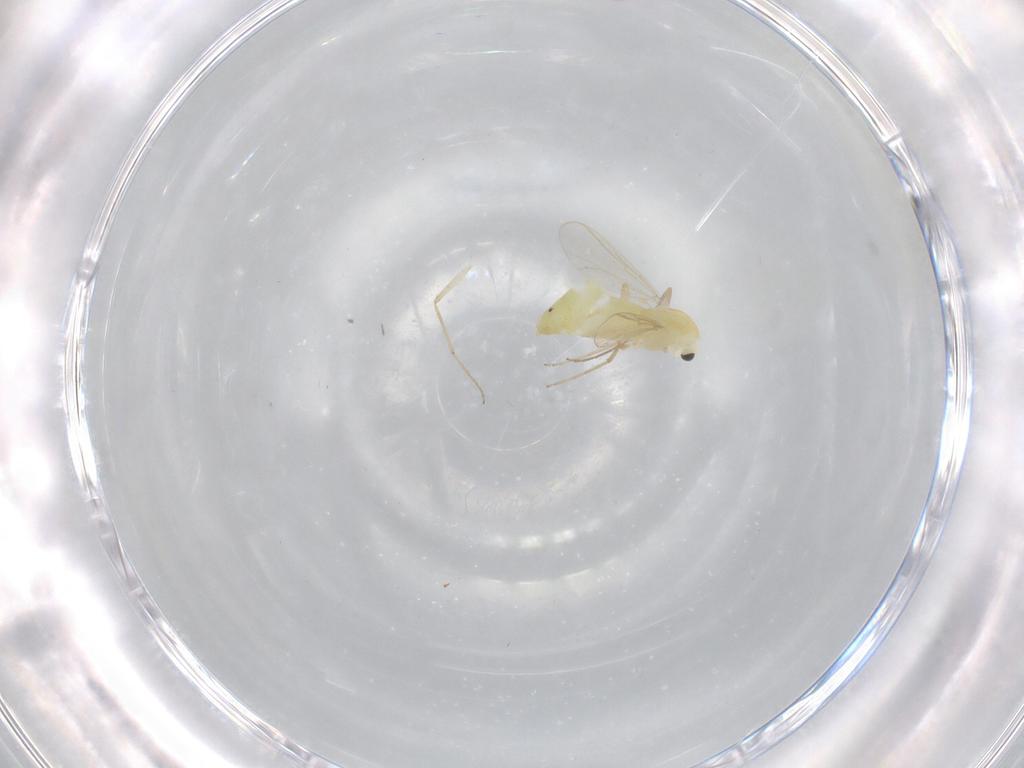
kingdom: Animalia
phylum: Arthropoda
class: Insecta
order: Diptera
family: Chironomidae
